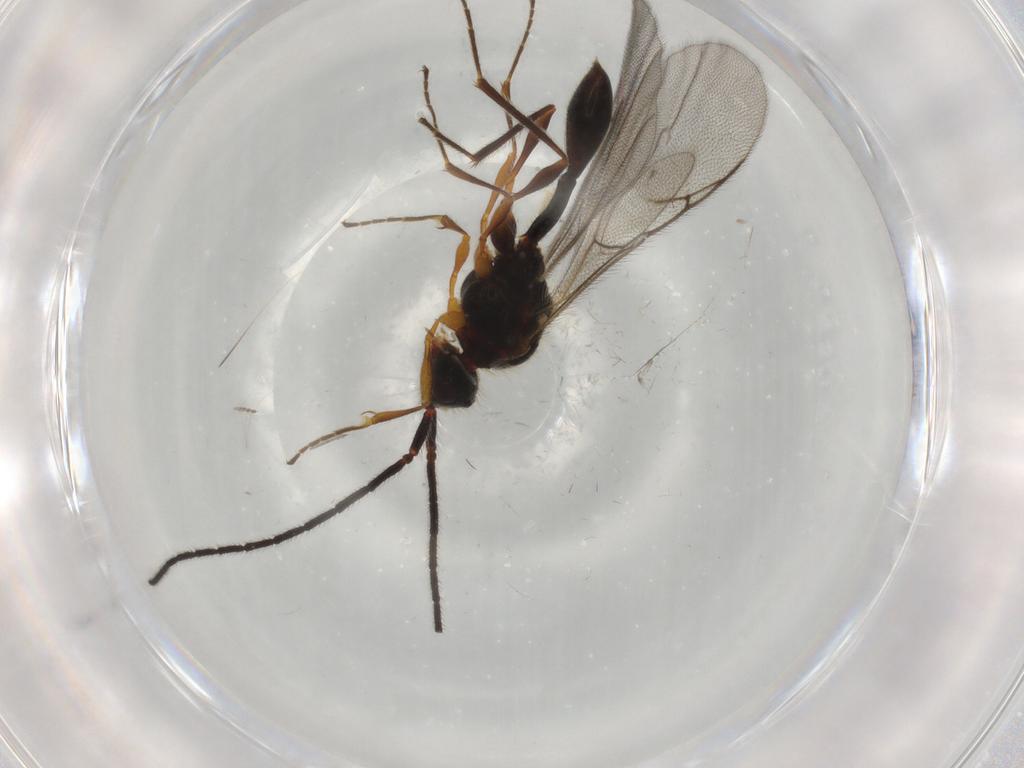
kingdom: Animalia
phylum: Arthropoda
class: Insecta
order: Hymenoptera
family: Diapriidae
